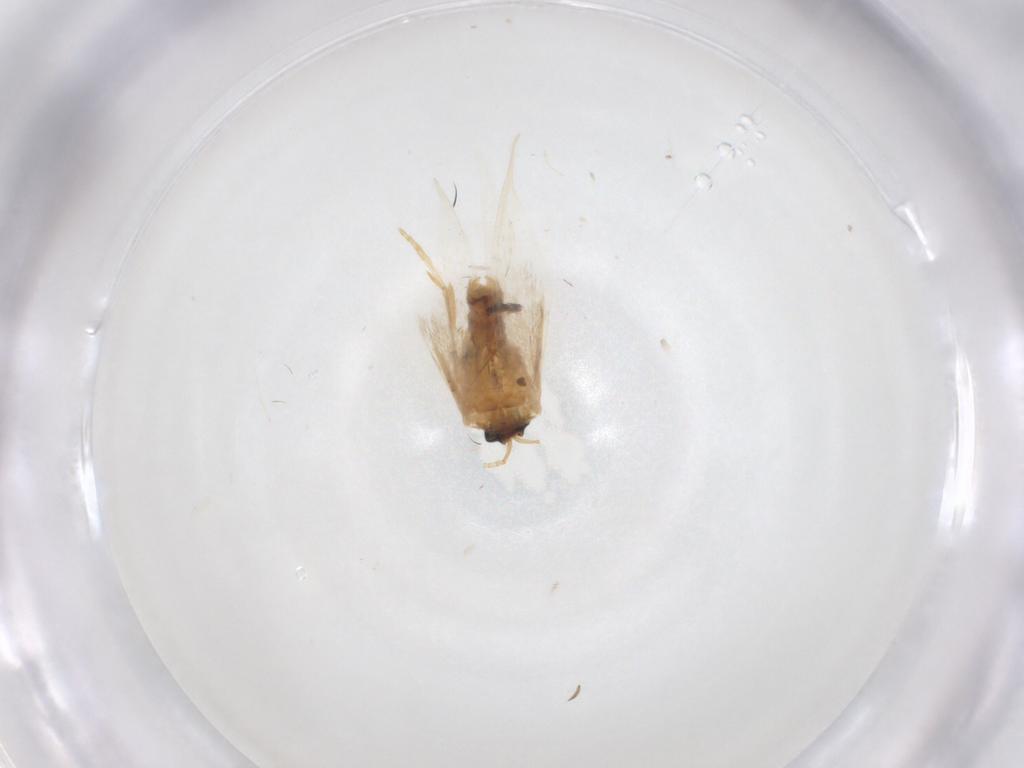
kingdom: Animalia
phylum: Arthropoda
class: Insecta
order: Lepidoptera
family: Nepticulidae
